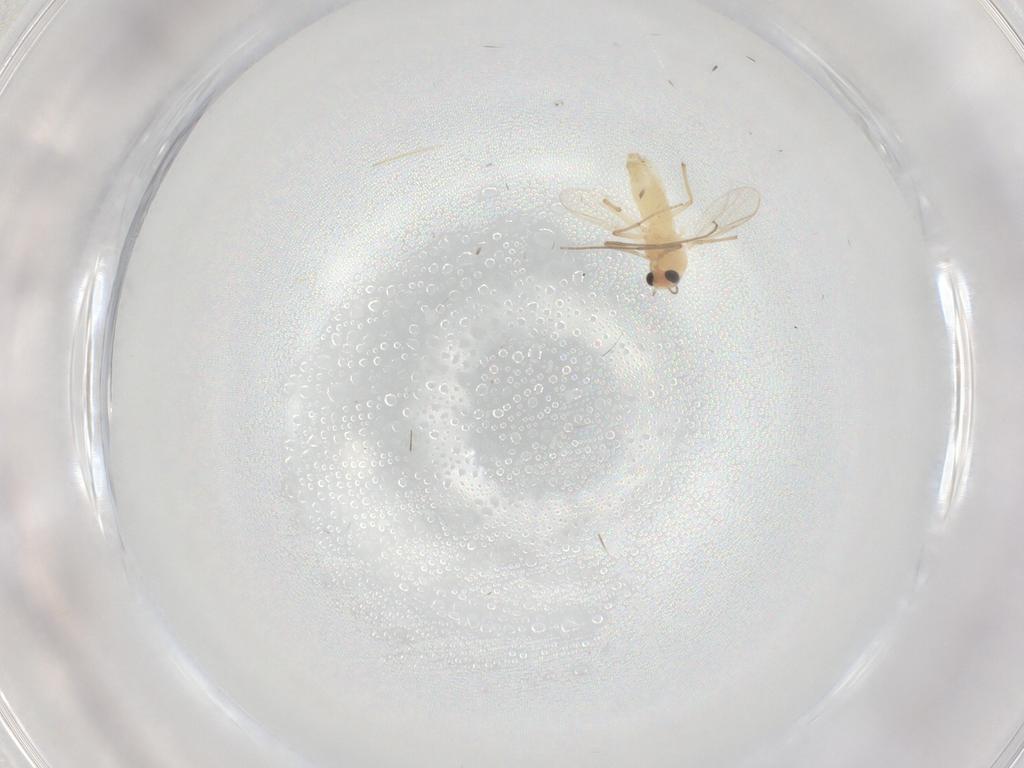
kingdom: Animalia
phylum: Arthropoda
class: Insecta
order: Diptera
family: Chironomidae
